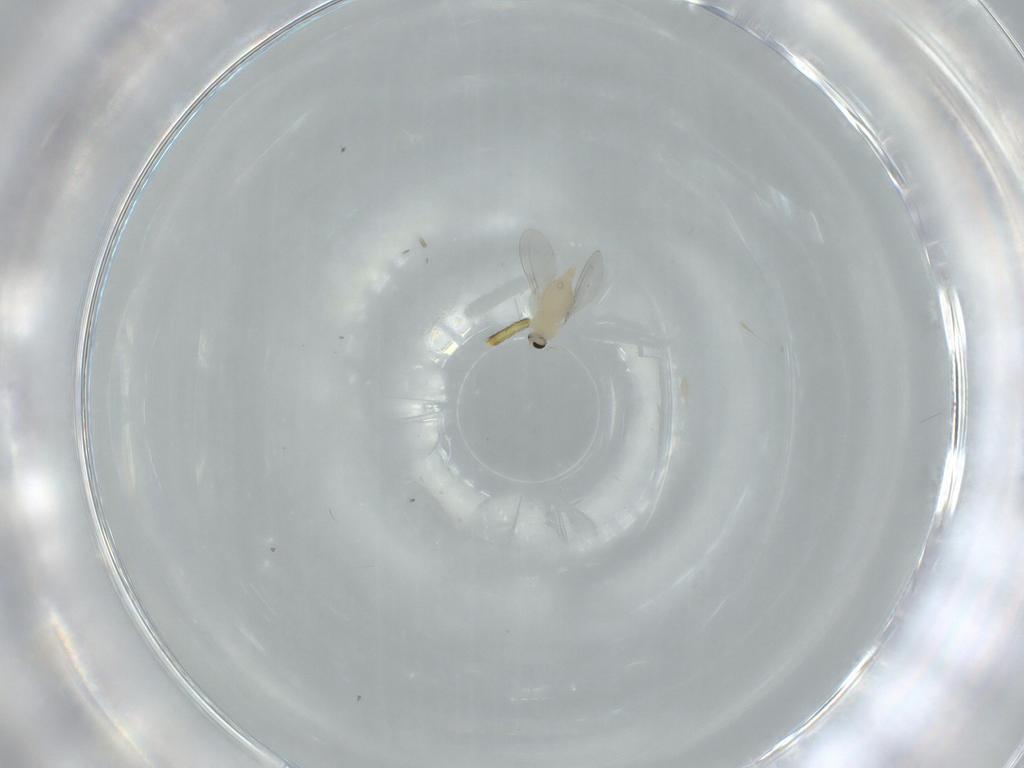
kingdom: Animalia
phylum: Arthropoda
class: Insecta
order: Diptera
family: Cecidomyiidae
